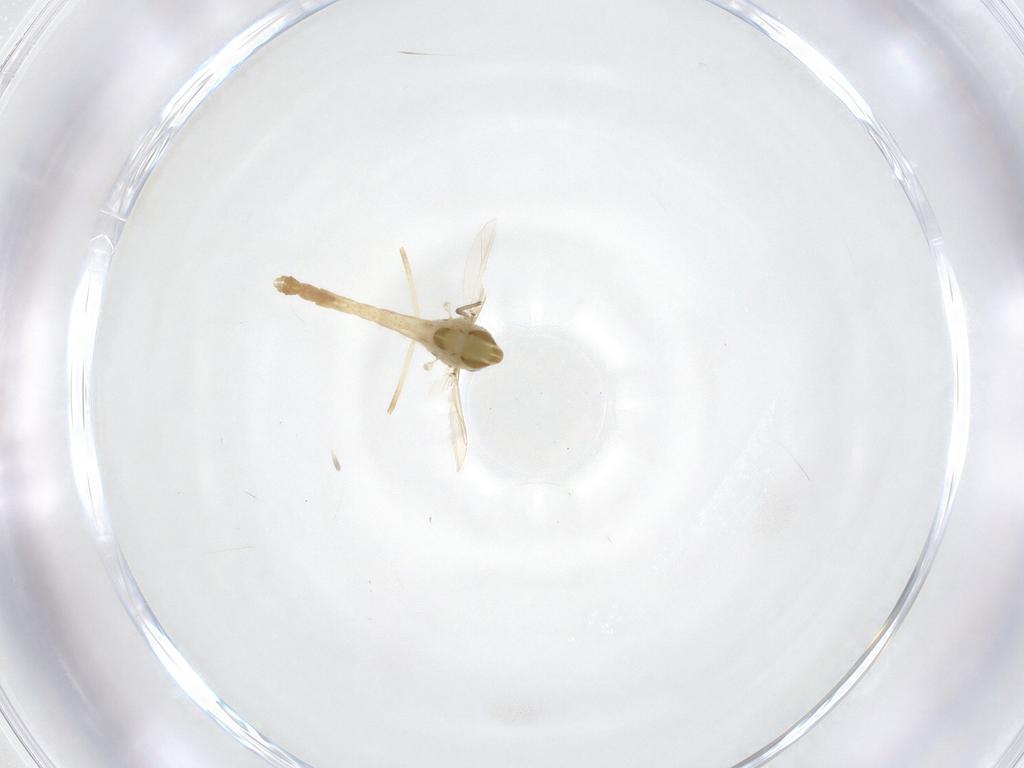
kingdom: Animalia
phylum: Arthropoda
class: Insecta
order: Diptera
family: Chironomidae
